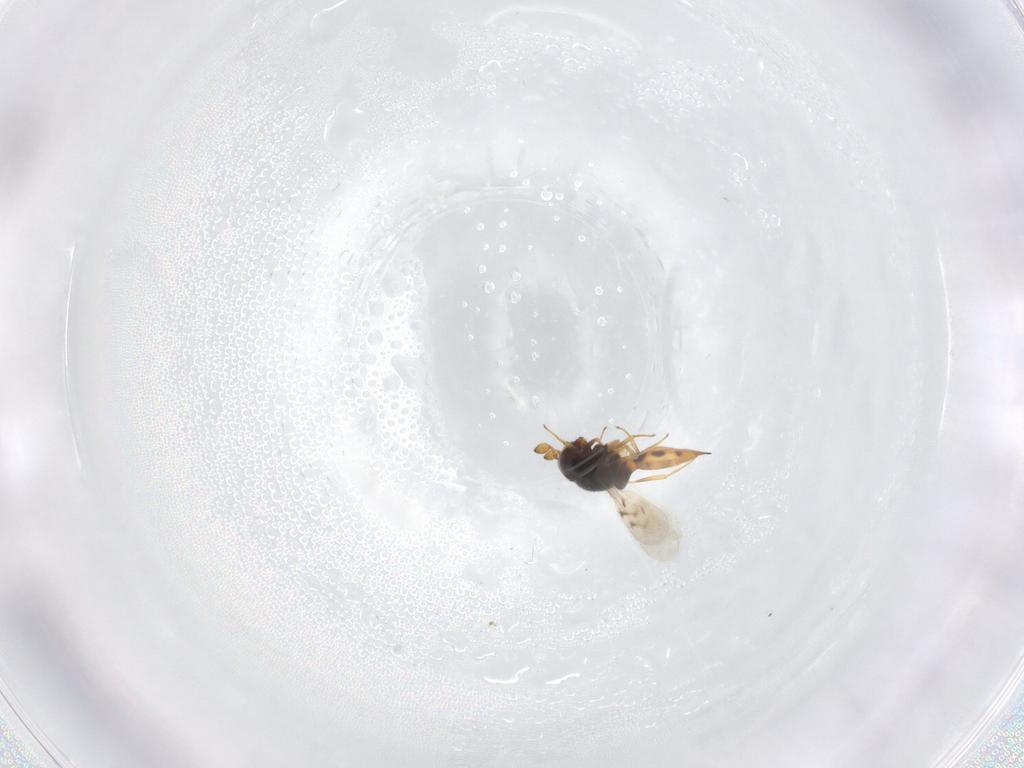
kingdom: Animalia
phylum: Arthropoda
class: Insecta
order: Hymenoptera
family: Scelionidae
